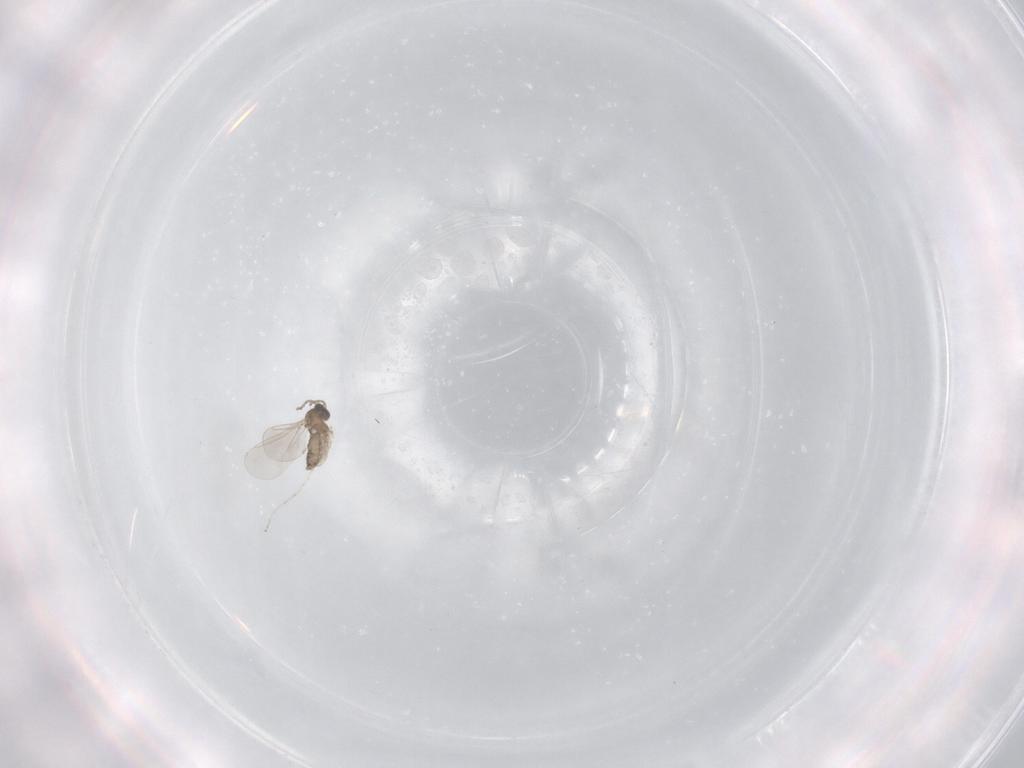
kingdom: Animalia
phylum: Arthropoda
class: Insecta
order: Diptera
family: Cecidomyiidae
